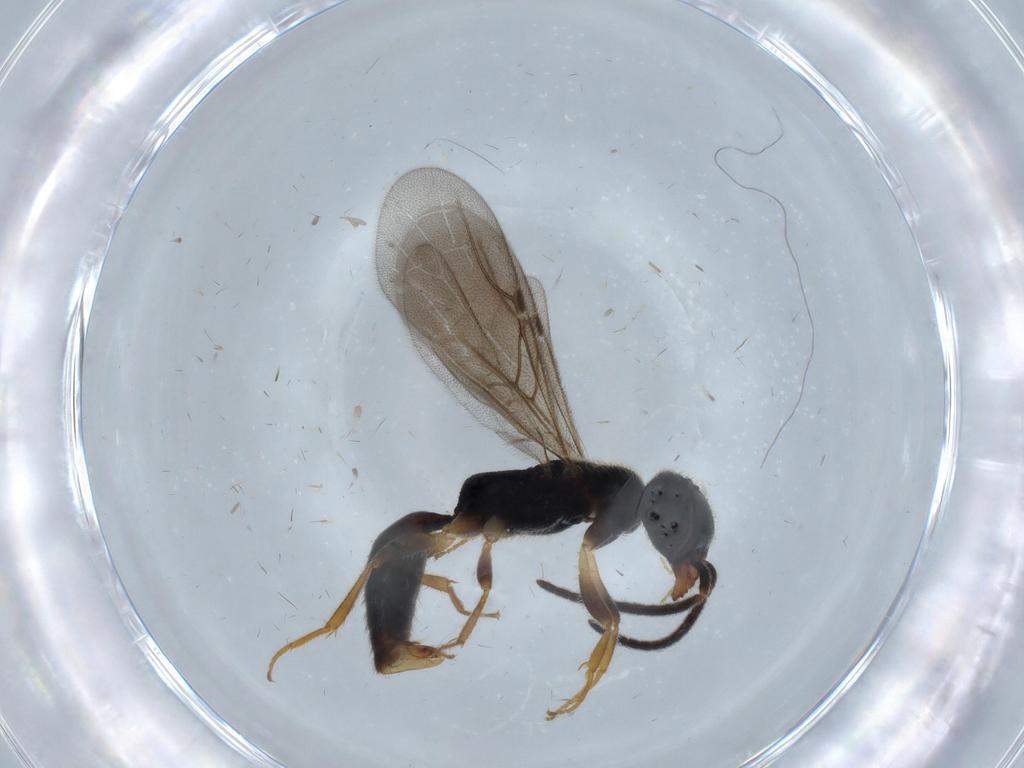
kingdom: Animalia
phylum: Arthropoda
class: Insecta
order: Hymenoptera
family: Bethylidae
